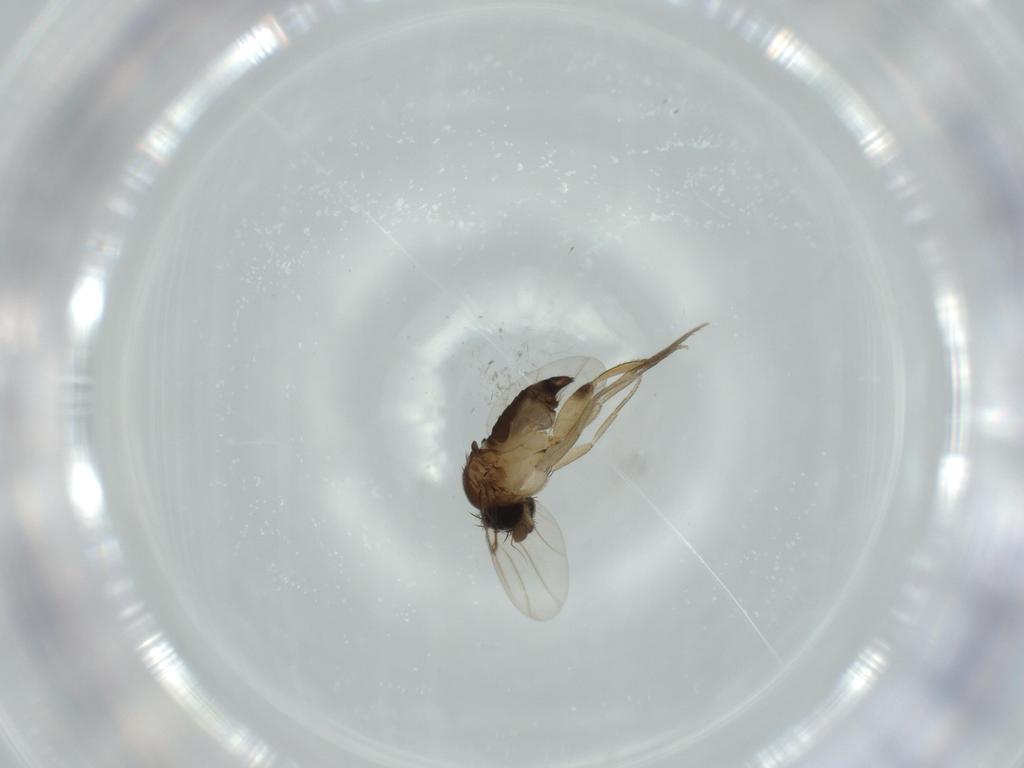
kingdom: Animalia
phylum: Arthropoda
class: Insecta
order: Diptera
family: Phoridae
